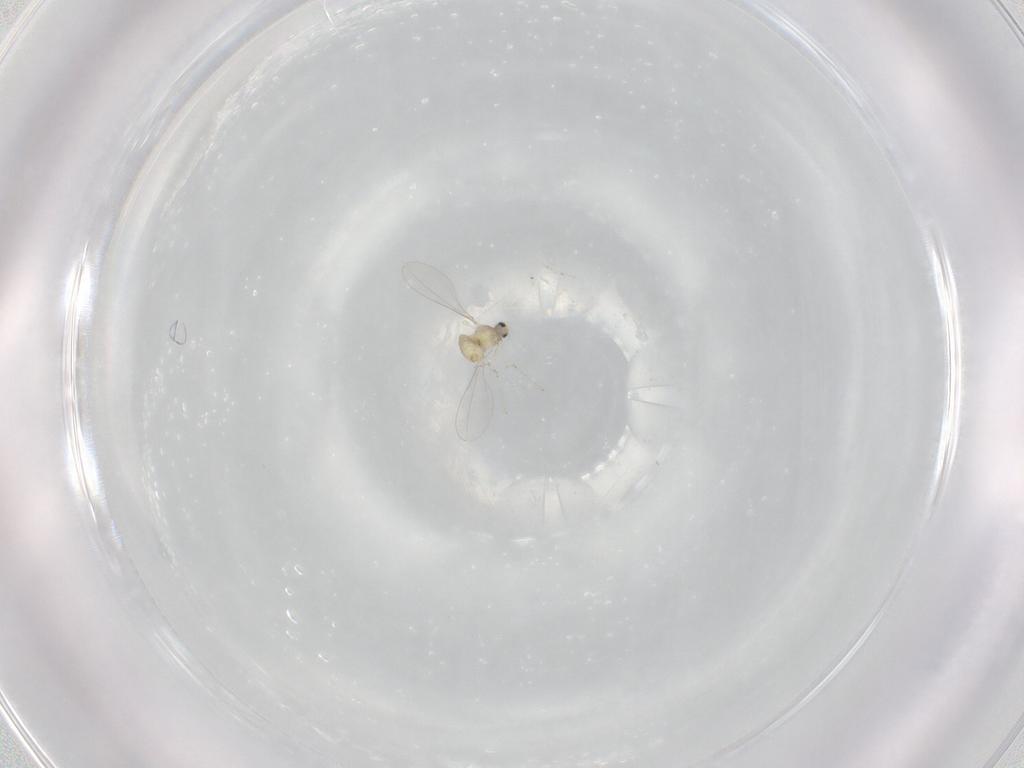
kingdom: Animalia
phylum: Arthropoda
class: Insecta
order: Diptera
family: Cecidomyiidae
